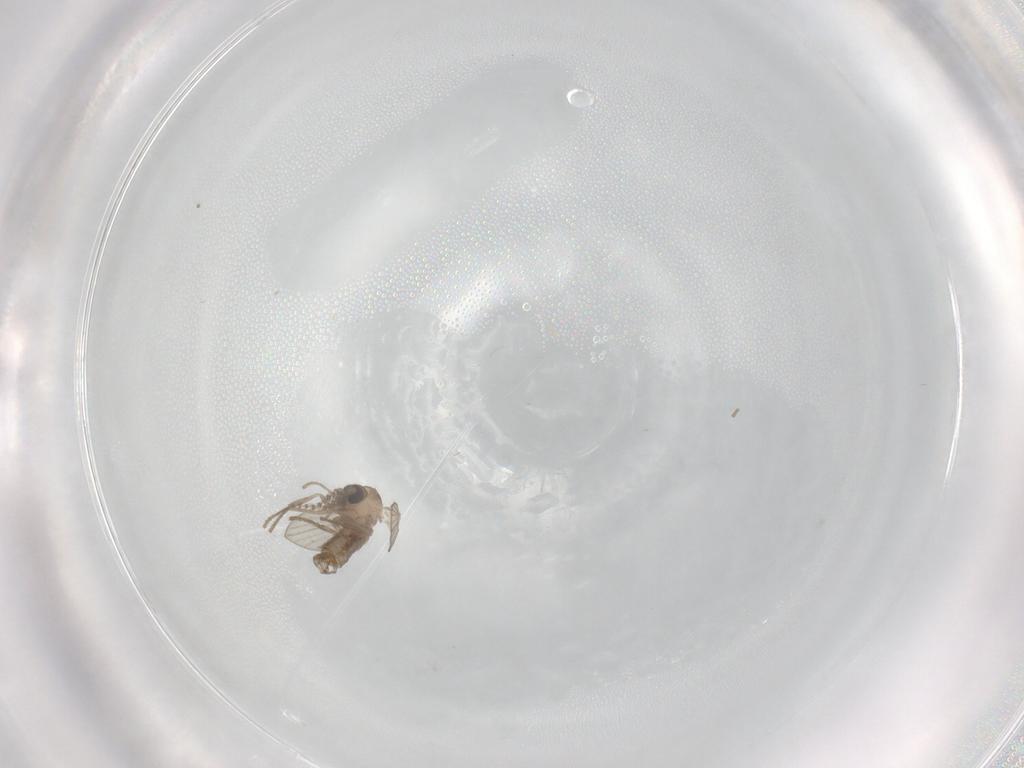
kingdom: Animalia
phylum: Arthropoda
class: Insecta
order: Diptera
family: Psychodidae
